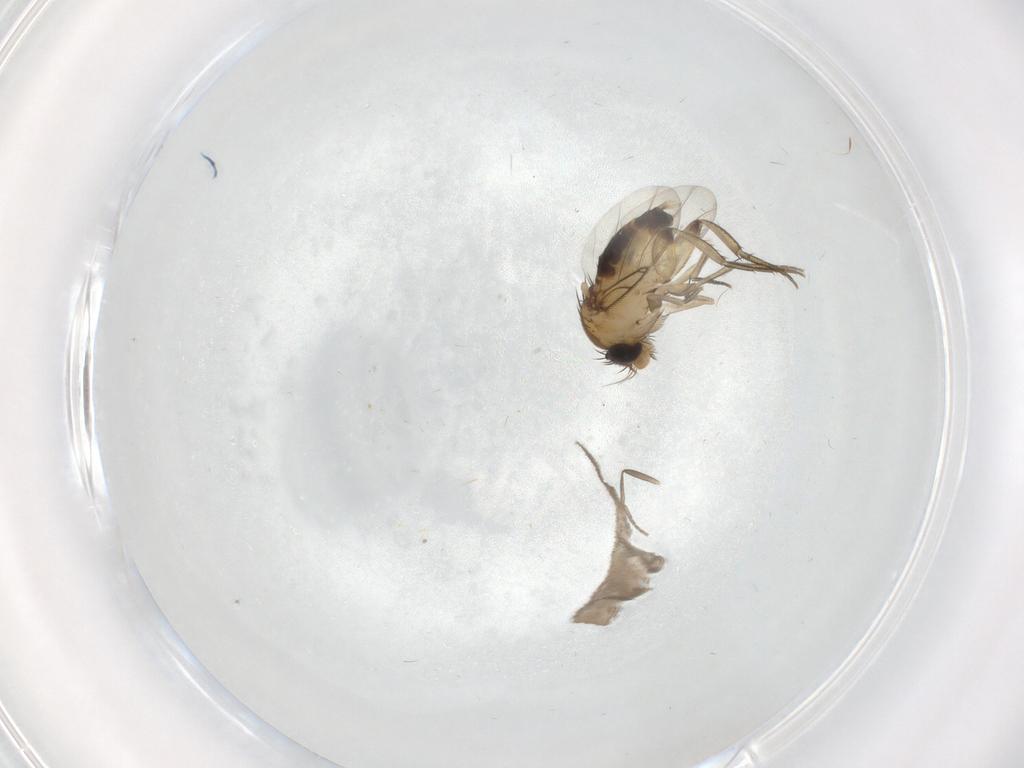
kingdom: Animalia
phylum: Arthropoda
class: Insecta
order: Diptera
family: Phoridae
